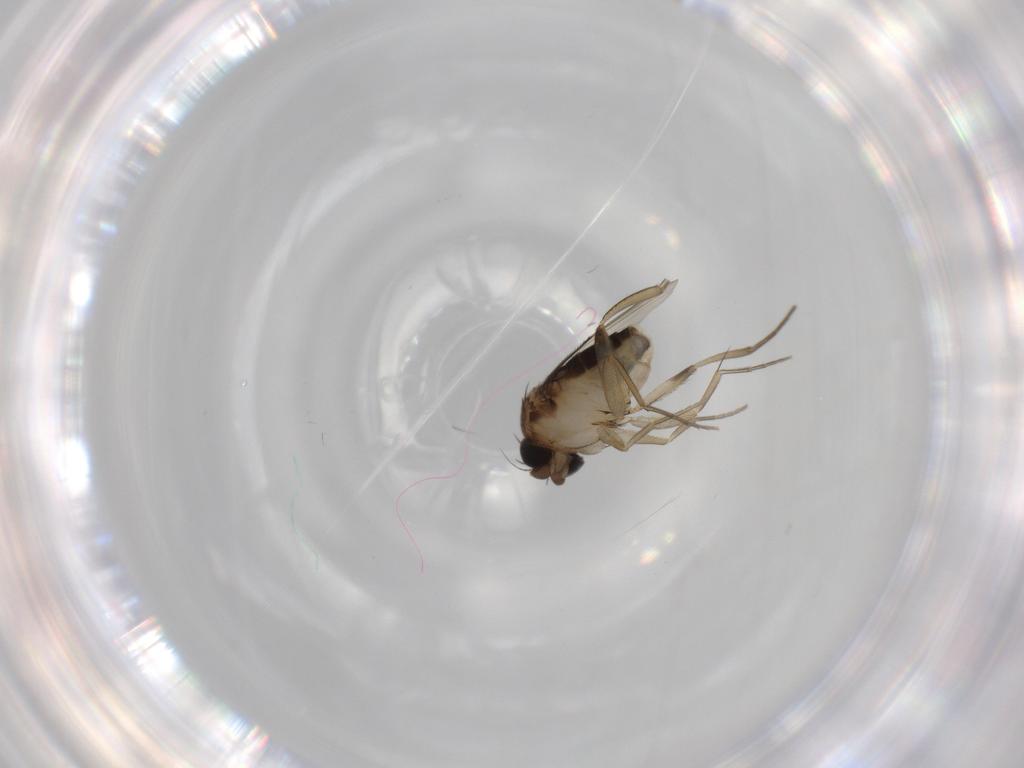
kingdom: Animalia
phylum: Arthropoda
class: Insecta
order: Diptera
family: Phoridae
